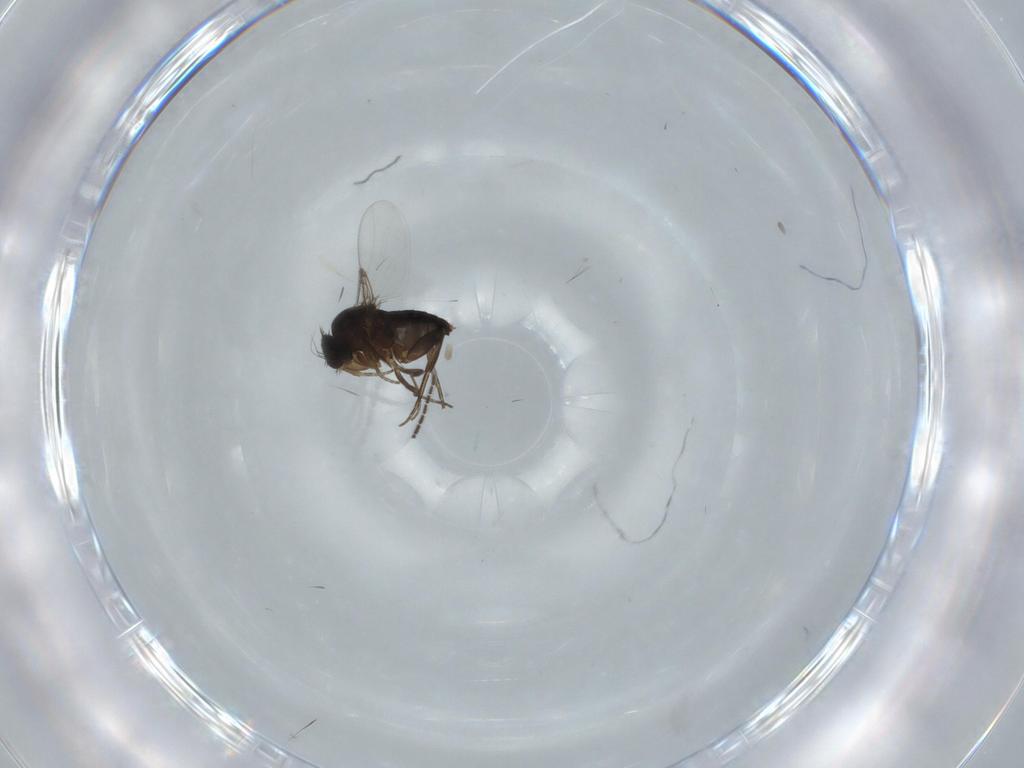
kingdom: Animalia
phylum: Arthropoda
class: Insecta
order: Diptera
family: Phoridae
